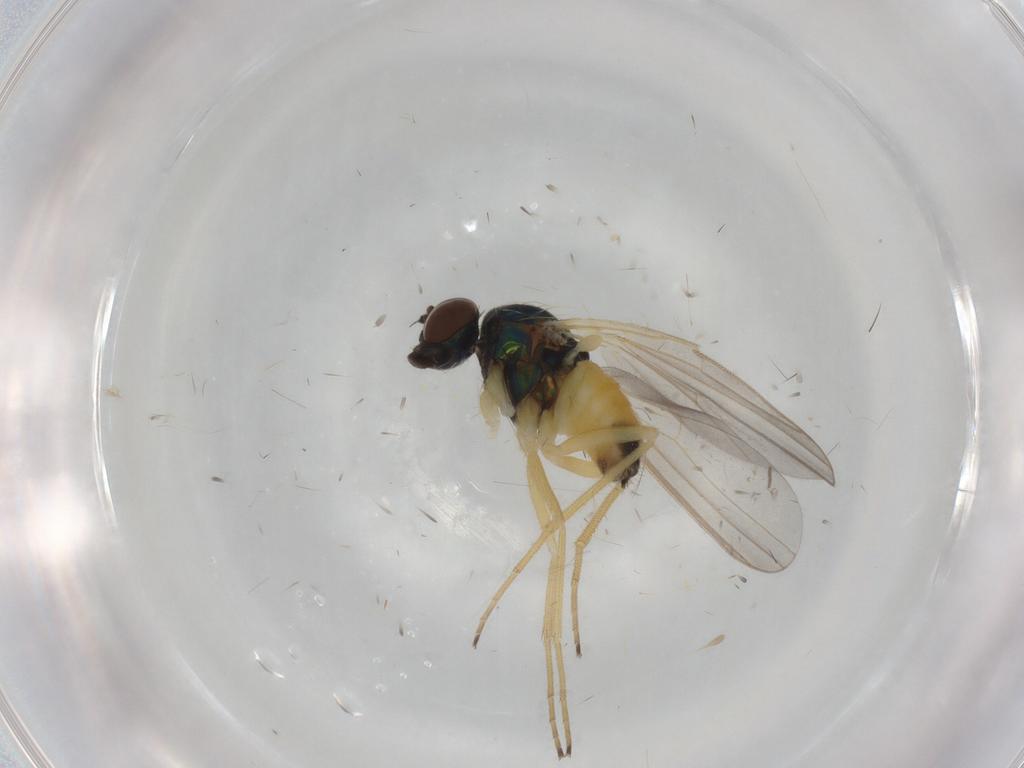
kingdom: Animalia
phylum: Arthropoda
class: Insecta
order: Diptera
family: Dolichopodidae
